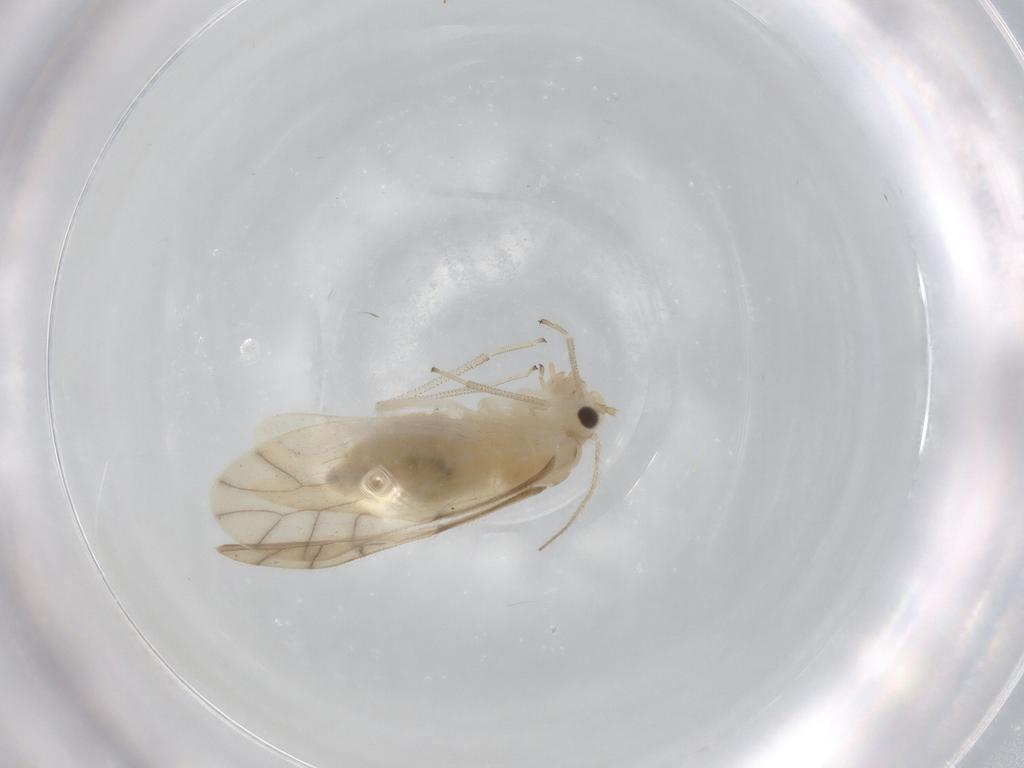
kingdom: Animalia
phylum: Arthropoda
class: Insecta
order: Psocodea
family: Caeciliusidae
